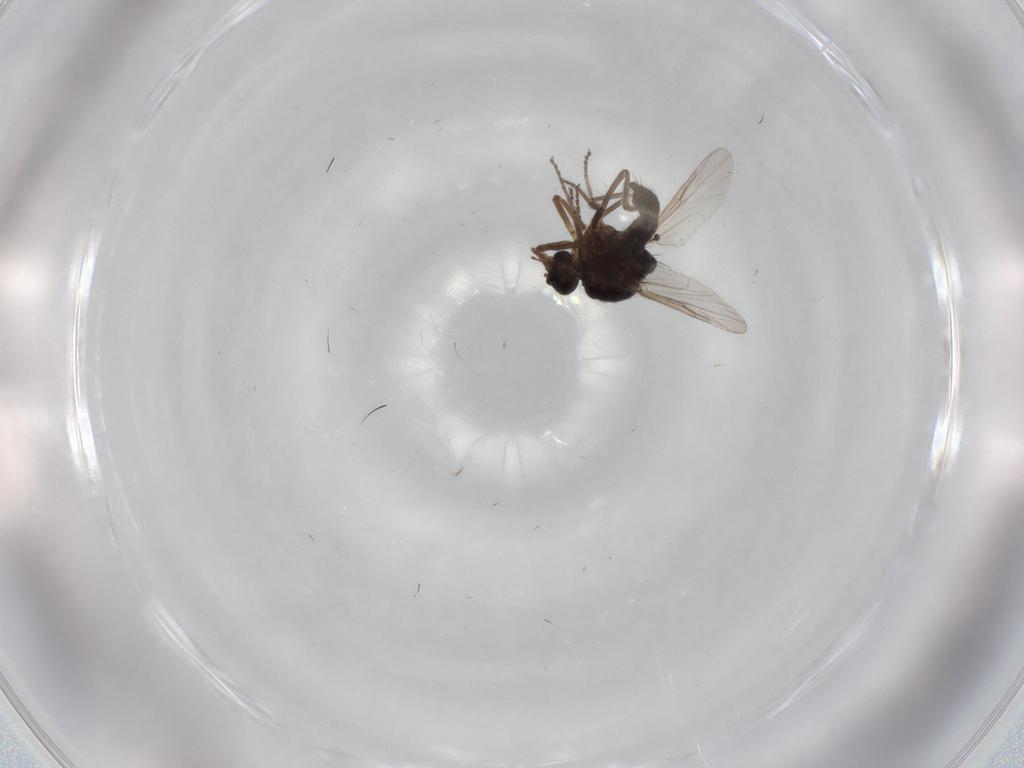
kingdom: Animalia
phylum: Arthropoda
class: Insecta
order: Diptera
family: Ceratopogonidae
